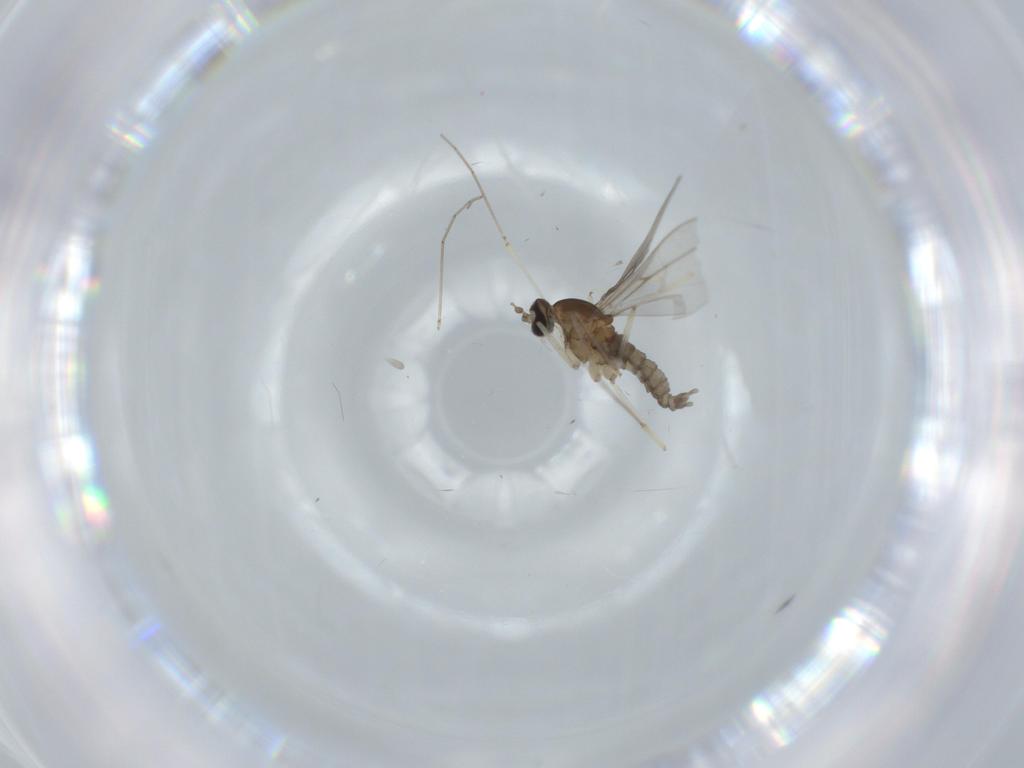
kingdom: Animalia
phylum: Arthropoda
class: Insecta
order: Diptera
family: Cecidomyiidae
